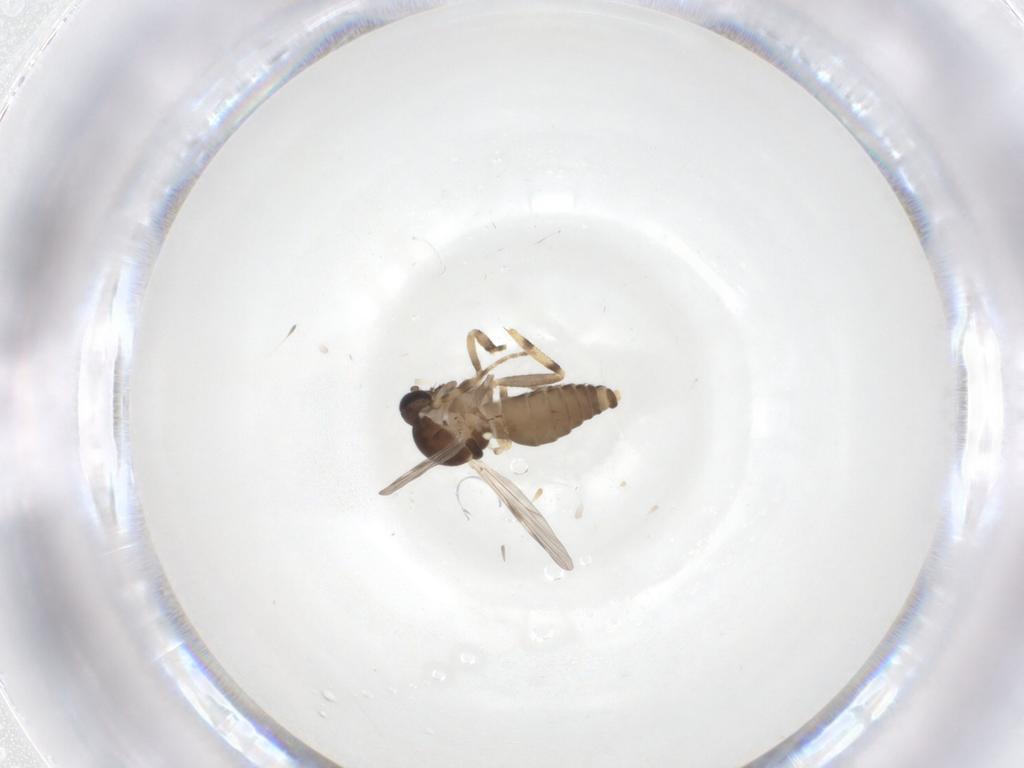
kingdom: Animalia
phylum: Arthropoda
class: Insecta
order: Diptera
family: Ceratopogonidae
